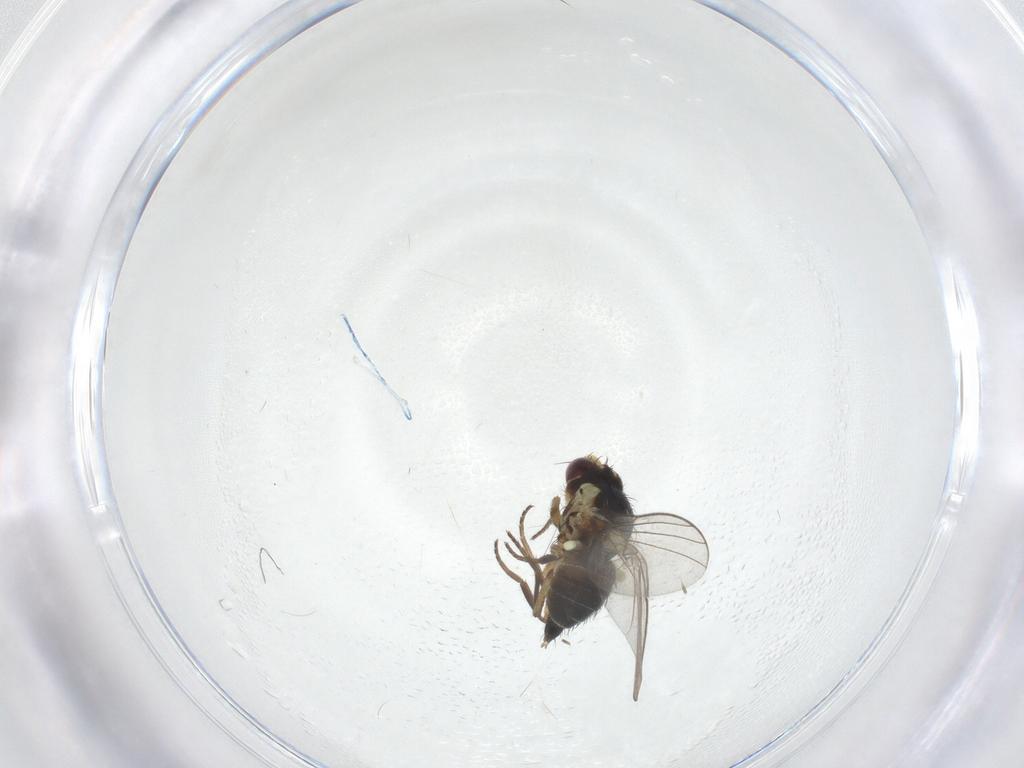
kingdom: Animalia
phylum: Arthropoda
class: Insecta
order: Diptera
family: Agromyzidae
